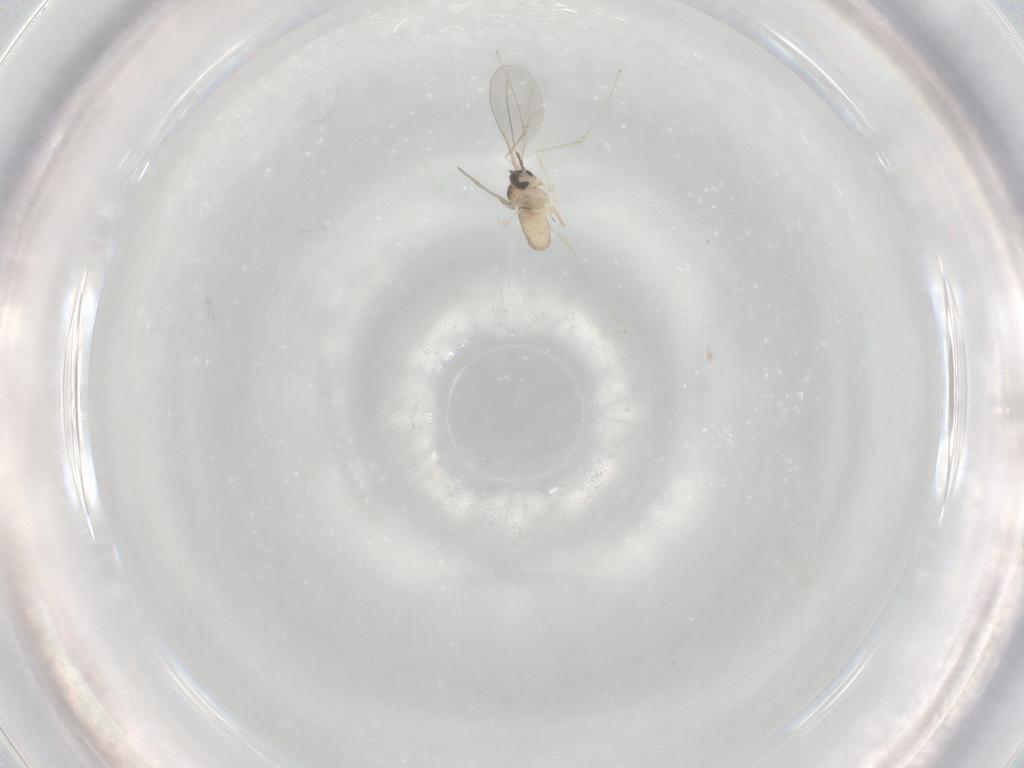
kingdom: Animalia
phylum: Arthropoda
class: Insecta
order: Diptera
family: Cecidomyiidae
